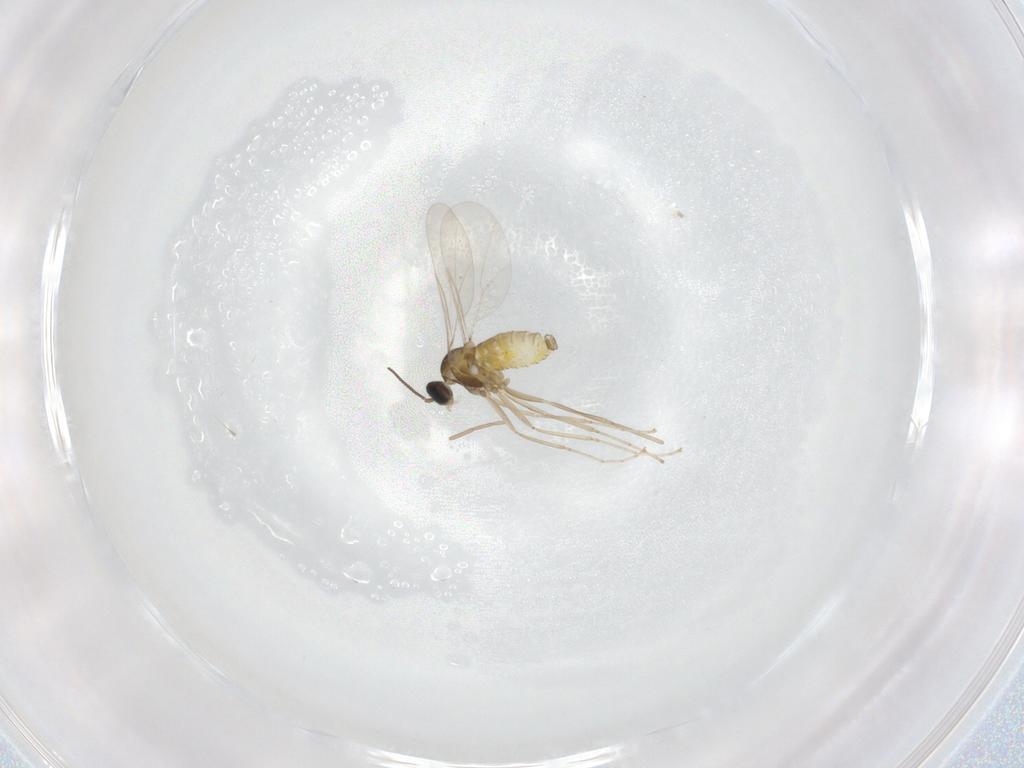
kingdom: Animalia
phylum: Arthropoda
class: Insecta
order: Diptera
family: Cecidomyiidae
